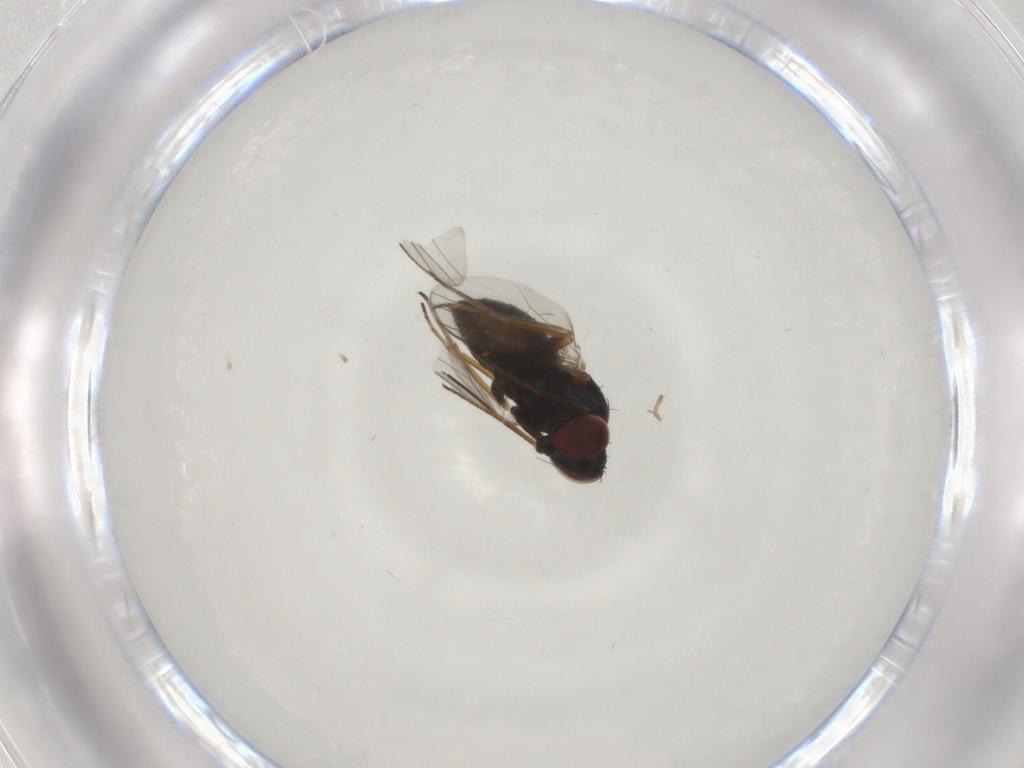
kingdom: Animalia
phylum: Arthropoda
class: Insecta
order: Diptera
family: Dolichopodidae
